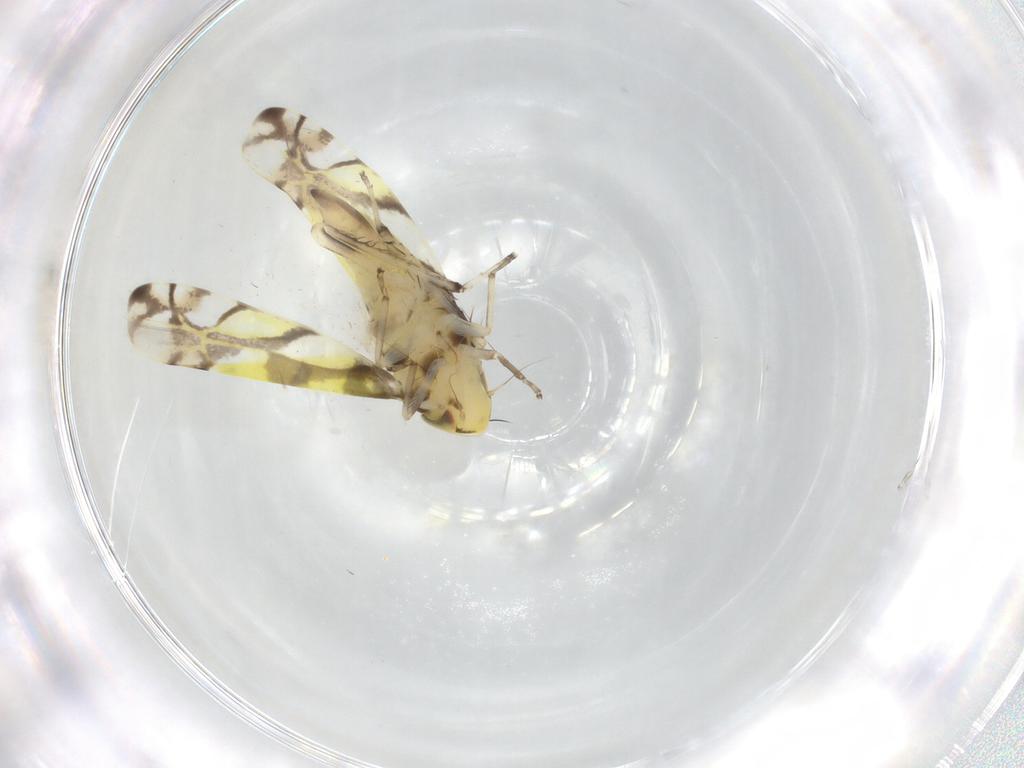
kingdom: Animalia
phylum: Arthropoda
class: Insecta
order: Hemiptera
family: Cicadellidae
